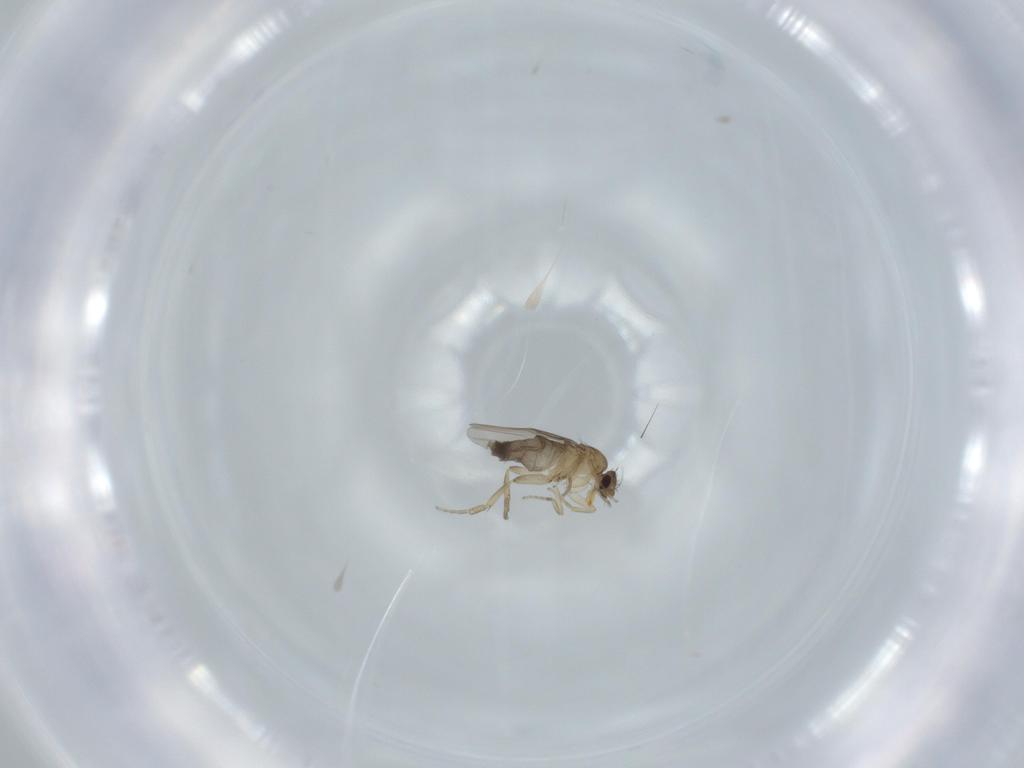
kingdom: Animalia
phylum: Arthropoda
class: Insecta
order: Diptera
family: Phoridae
